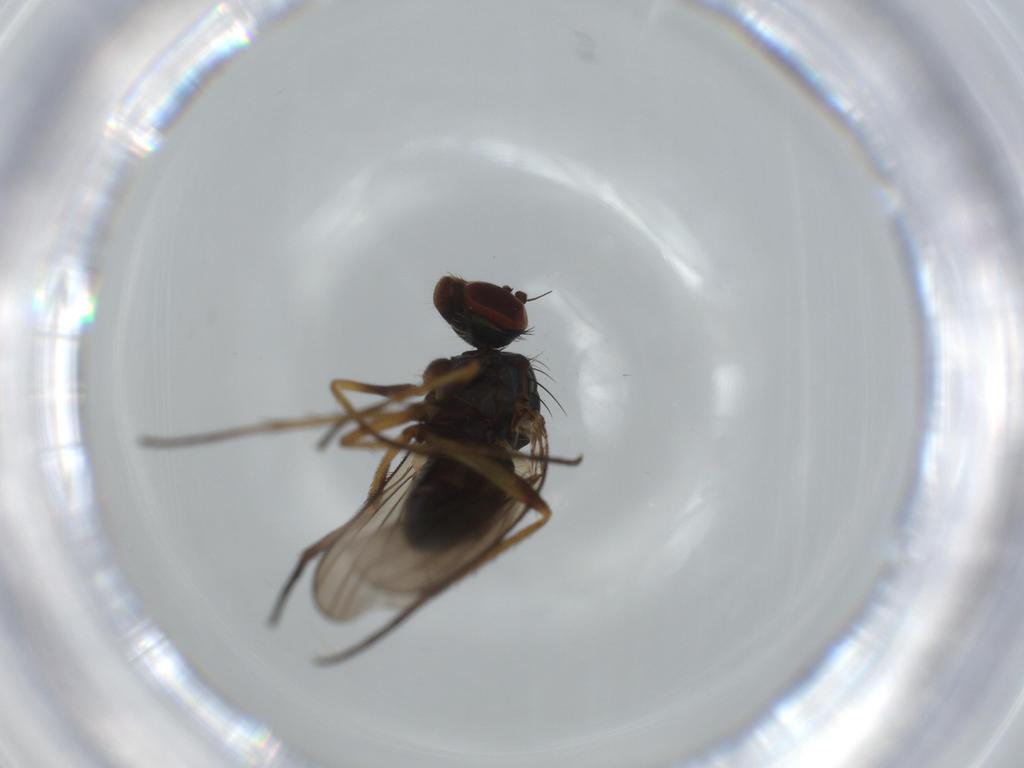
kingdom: Animalia
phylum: Arthropoda
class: Insecta
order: Diptera
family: Dolichopodidae
